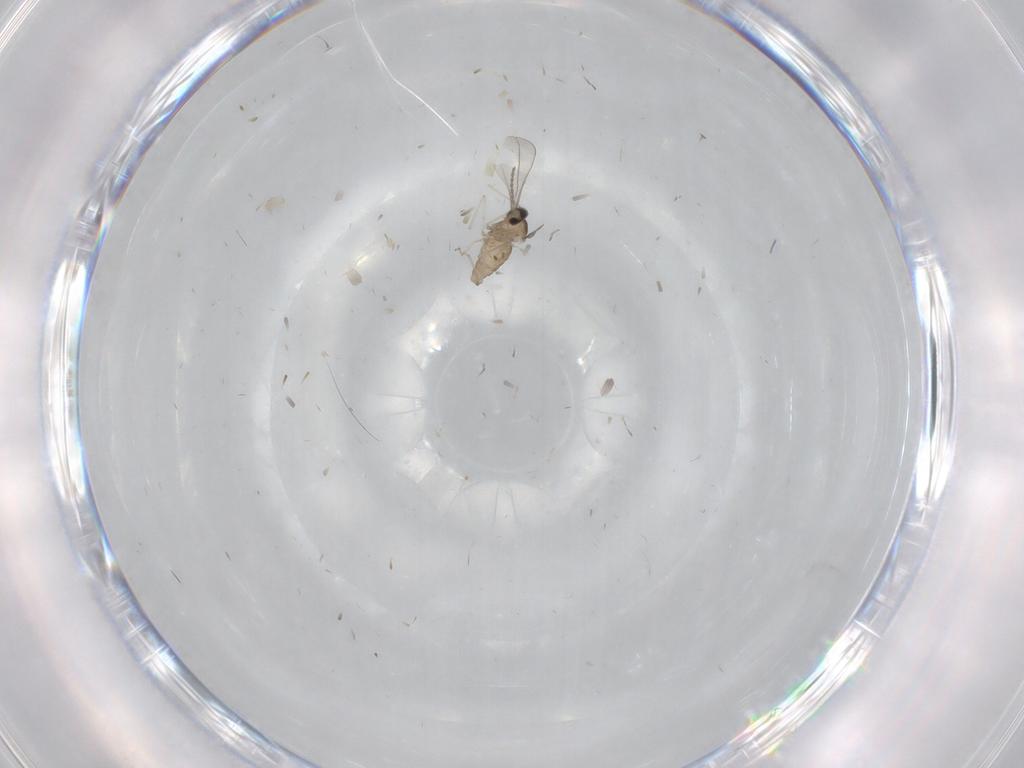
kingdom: Animalia
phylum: Arthropoda
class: Insecta
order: Diptera
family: Cecidomyiidae
